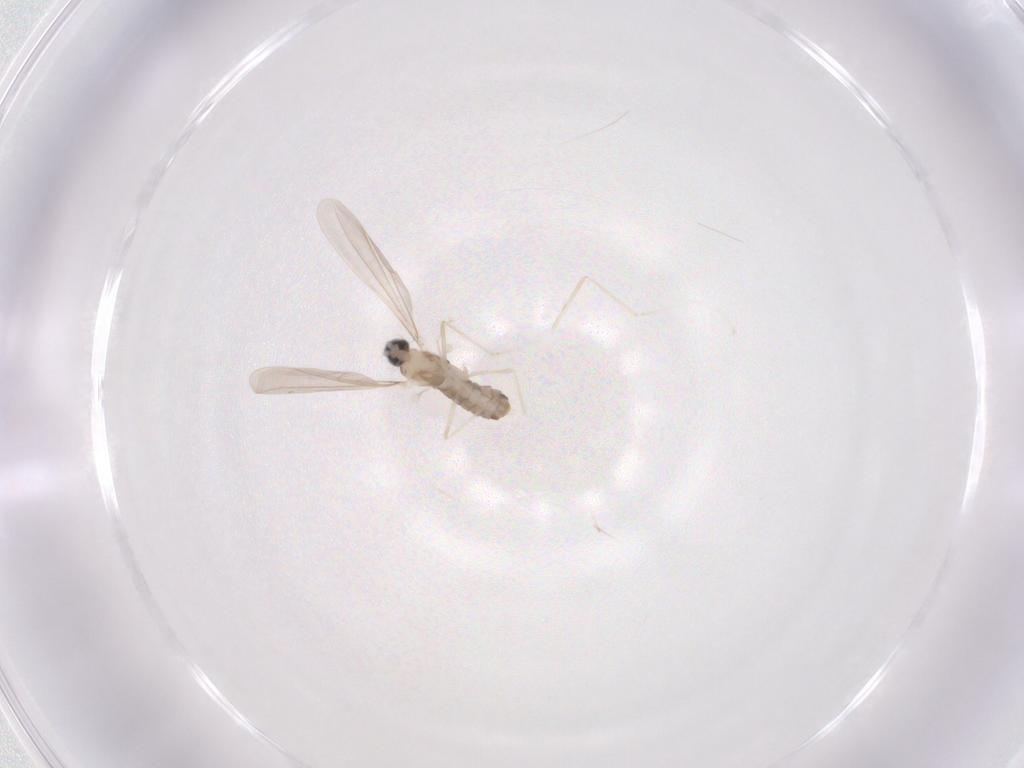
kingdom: Animalia
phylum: Arthropoda
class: Insecta
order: Diptera
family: Cecidomyiidae
